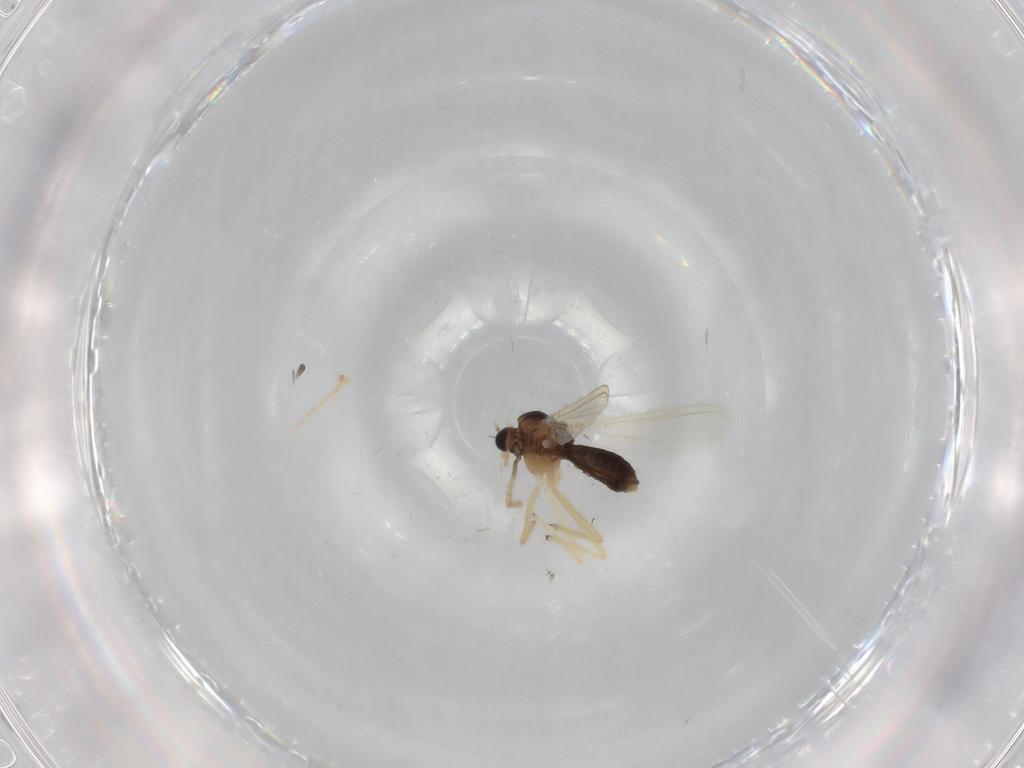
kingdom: Animalia
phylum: Arthropoda
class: Insecta
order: Diptera
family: Chironomidae
